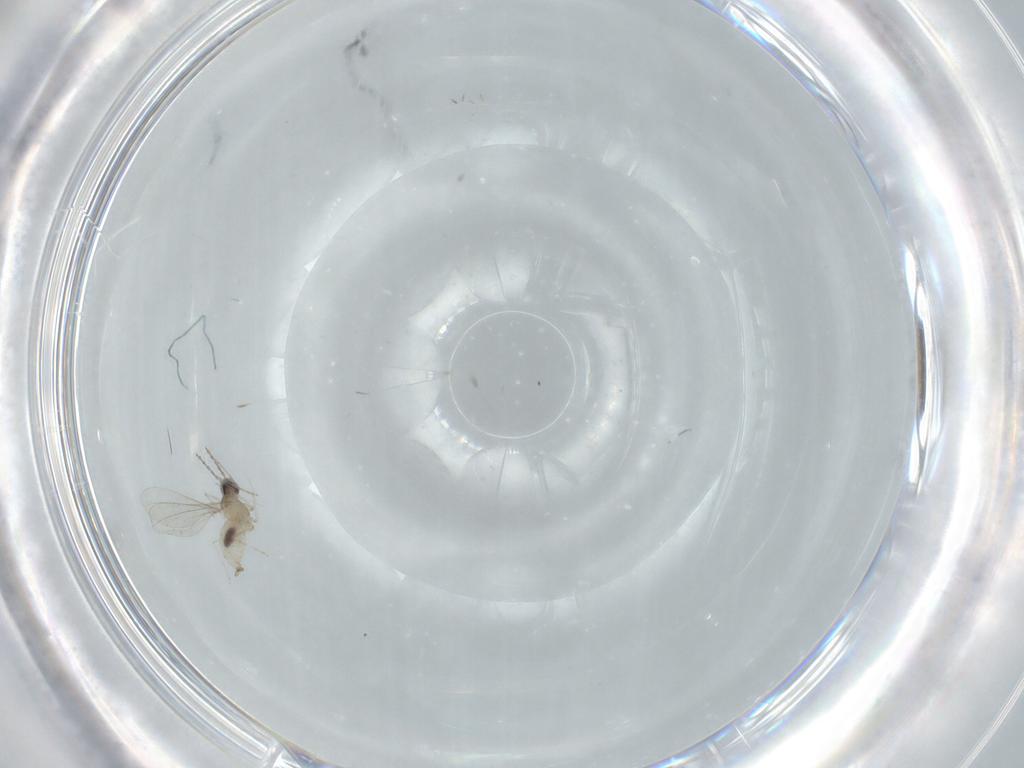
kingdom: Animalia
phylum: Arthropoda
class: Insecta
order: Diptera
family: Cecidomyiidae
